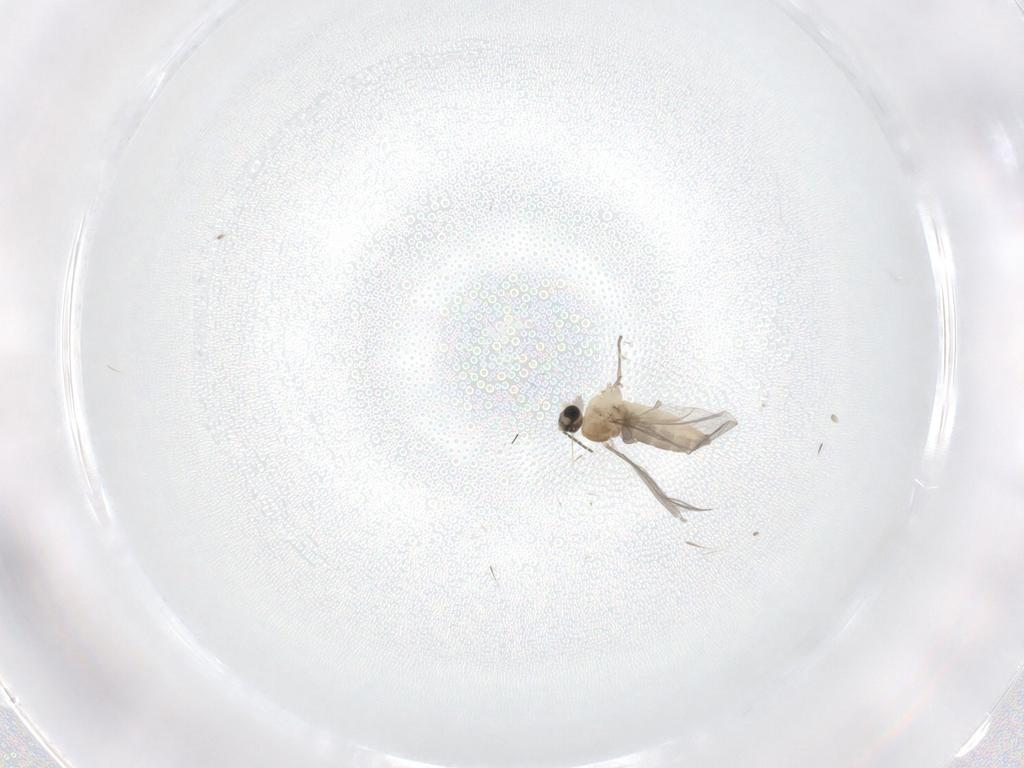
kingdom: Animalia
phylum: Arthropoda
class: Insecta
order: Diptera
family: Sciaridae
